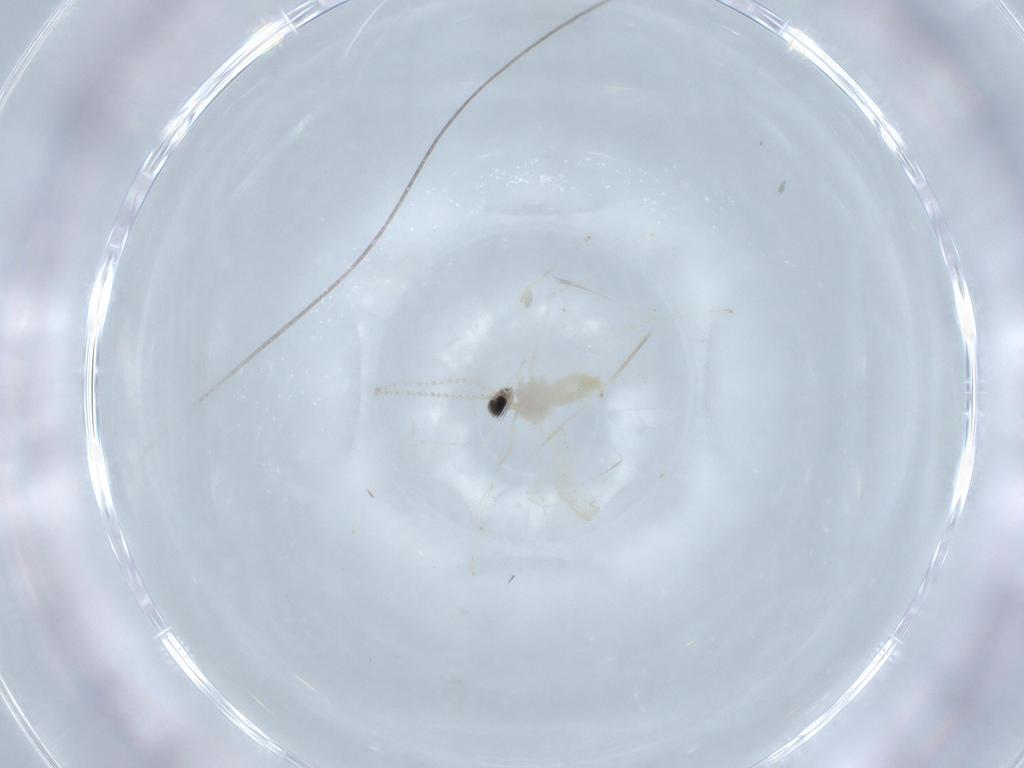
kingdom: Animalia
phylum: Arthropoda
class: Insecta
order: Diptera
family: Cecidomyiidae
